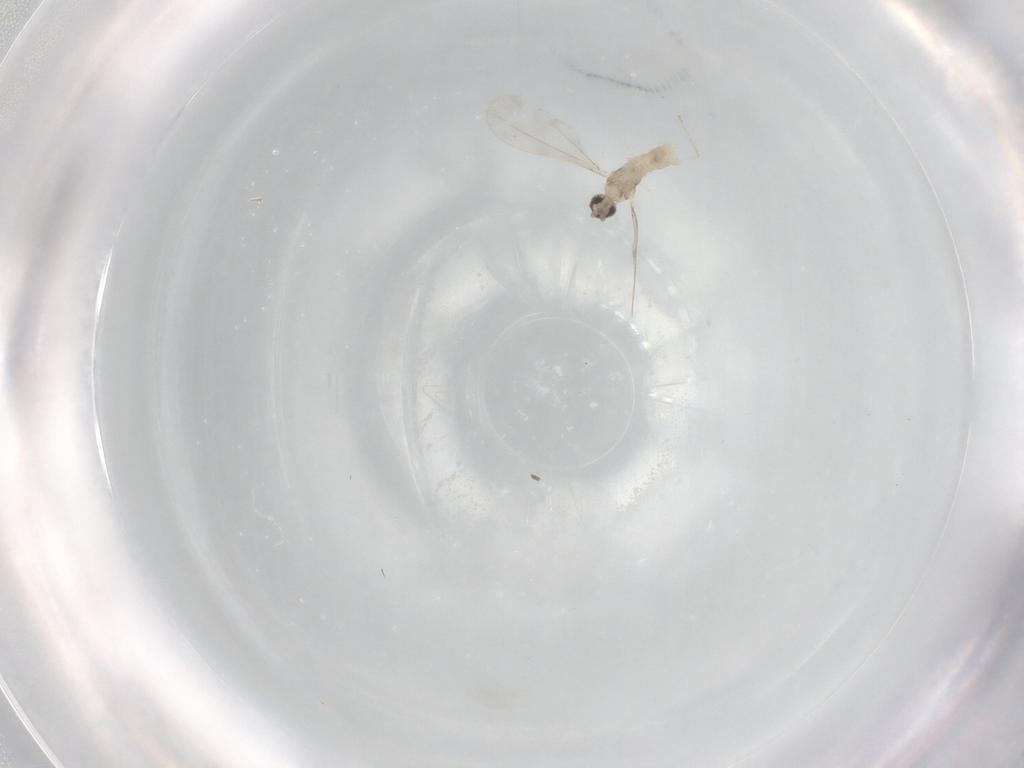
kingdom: Animalia
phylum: Arthropoda
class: Insecta
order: Diptera
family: Cecidomyiidae
